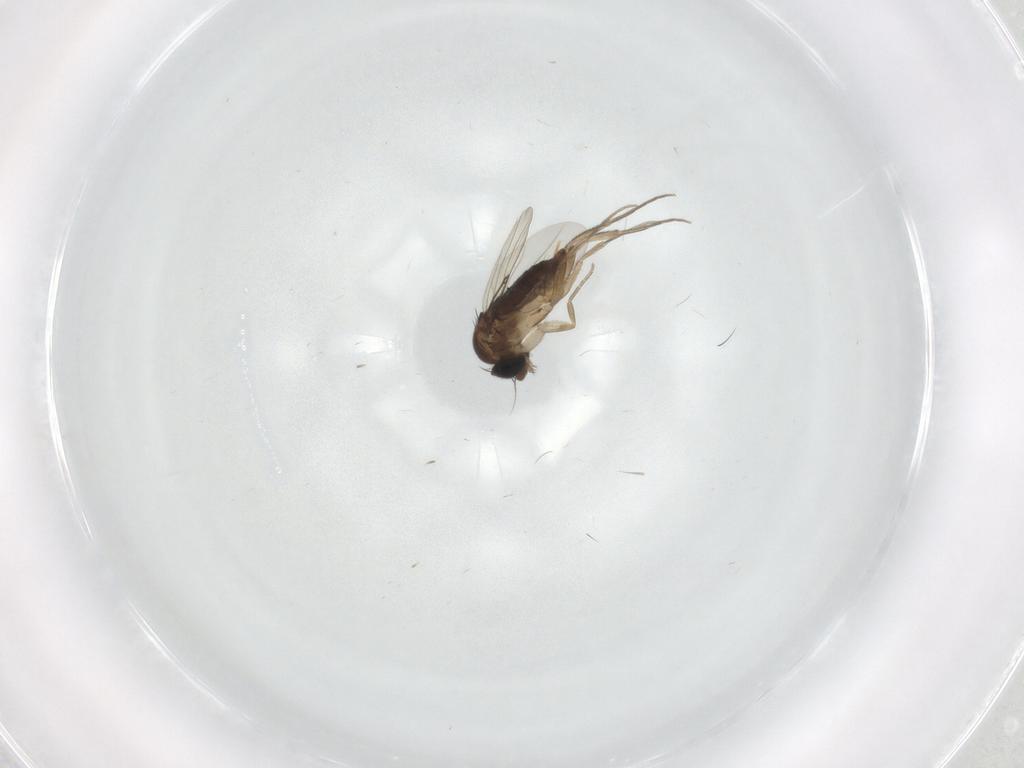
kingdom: Animalia
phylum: Arthropoda
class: Insecta
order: Diptera
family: Phoridae
